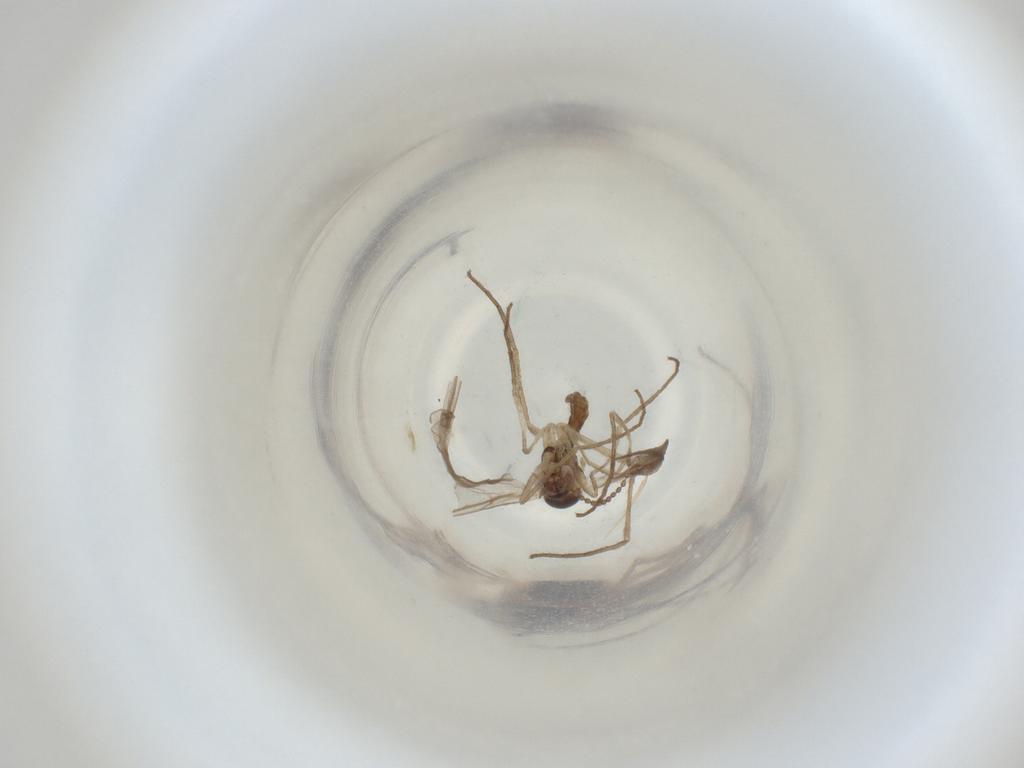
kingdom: Animalia
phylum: Arthropoda
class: Insecta
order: Diptera
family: Cecidomyiidae
